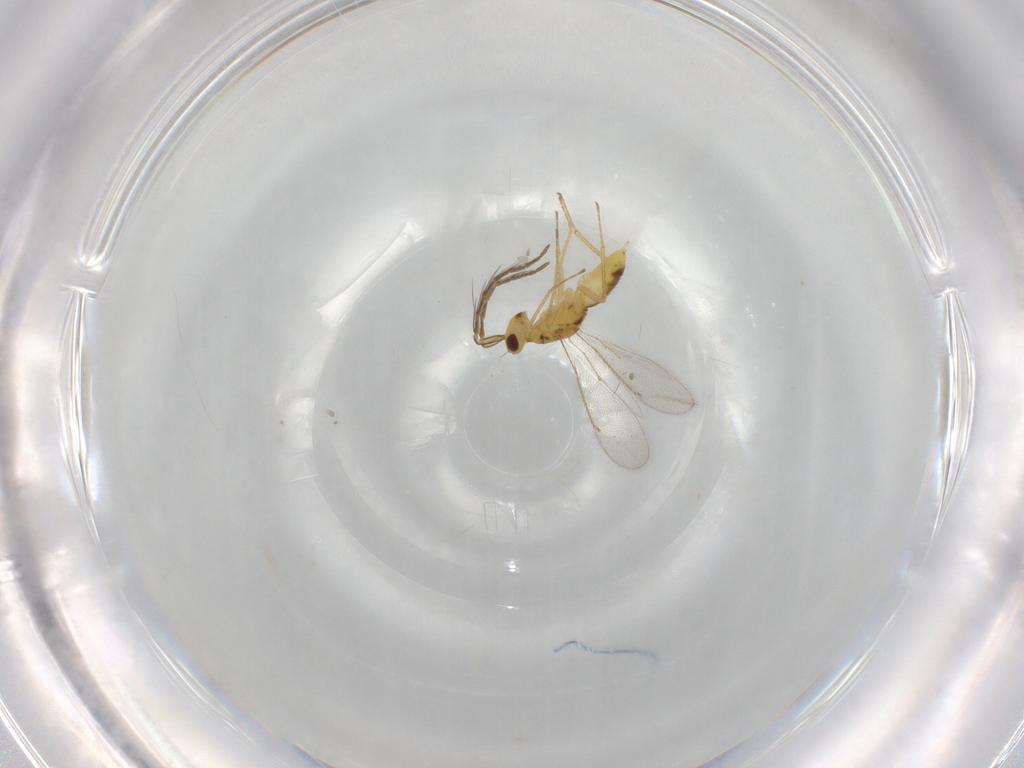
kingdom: Animalia
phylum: Arthropoda
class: Insecta
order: Hymenoptera
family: Eulophidae
